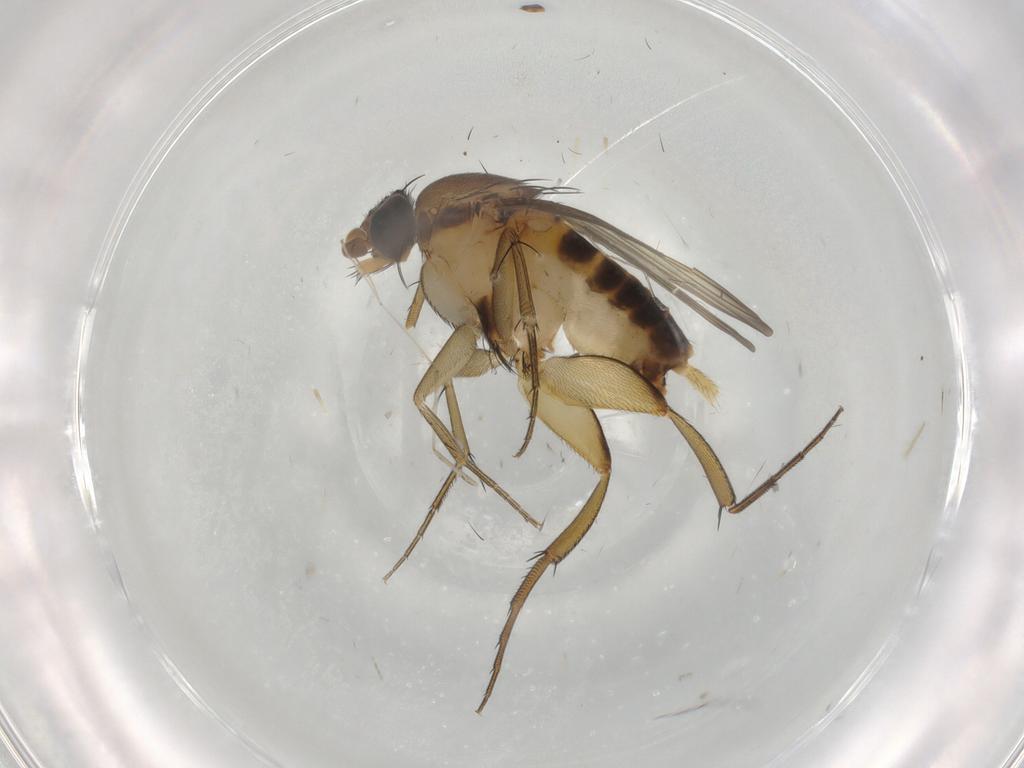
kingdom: Animalia
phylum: Arthropoda
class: Insecta
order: Diptera
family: Phoridae
